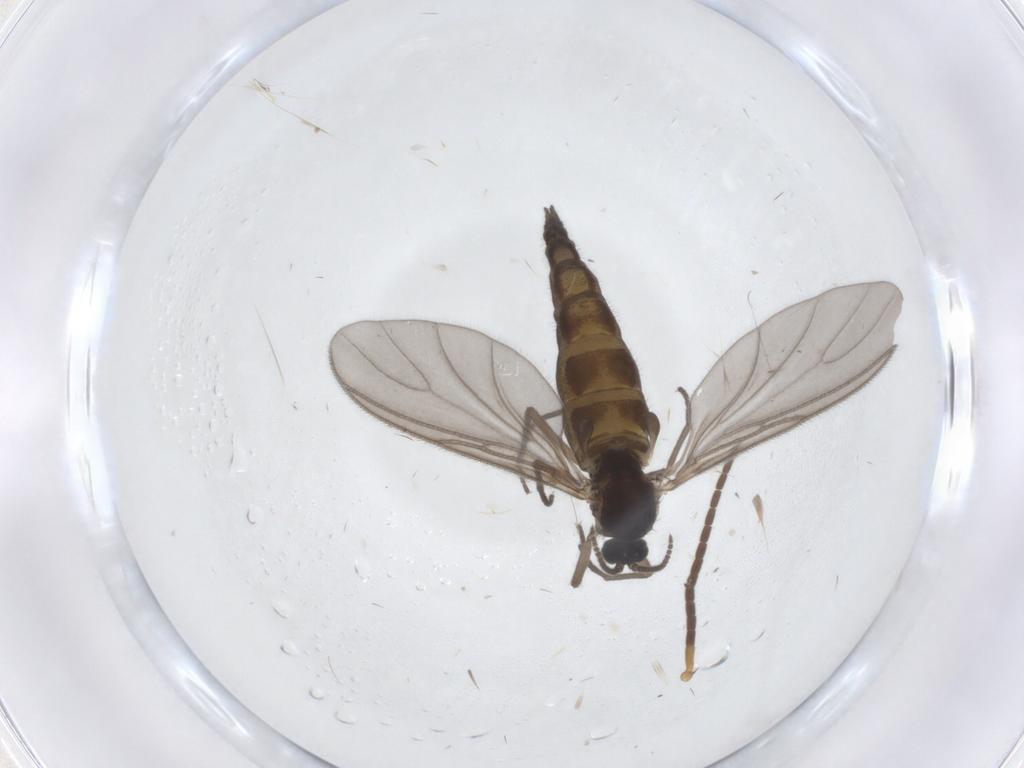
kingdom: Animalia
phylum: Arthropoda
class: Insecta
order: Diptera
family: Sciaridae
